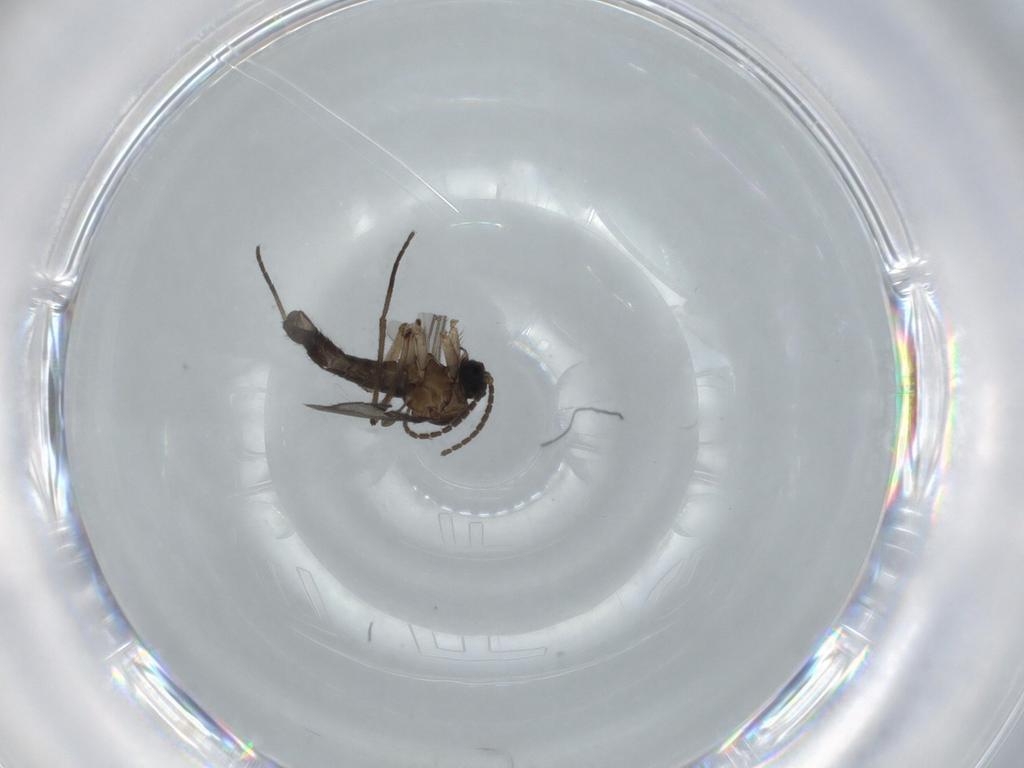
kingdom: Animalia
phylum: Arthropoda
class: Insecta
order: Diptera
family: Sciaridae
